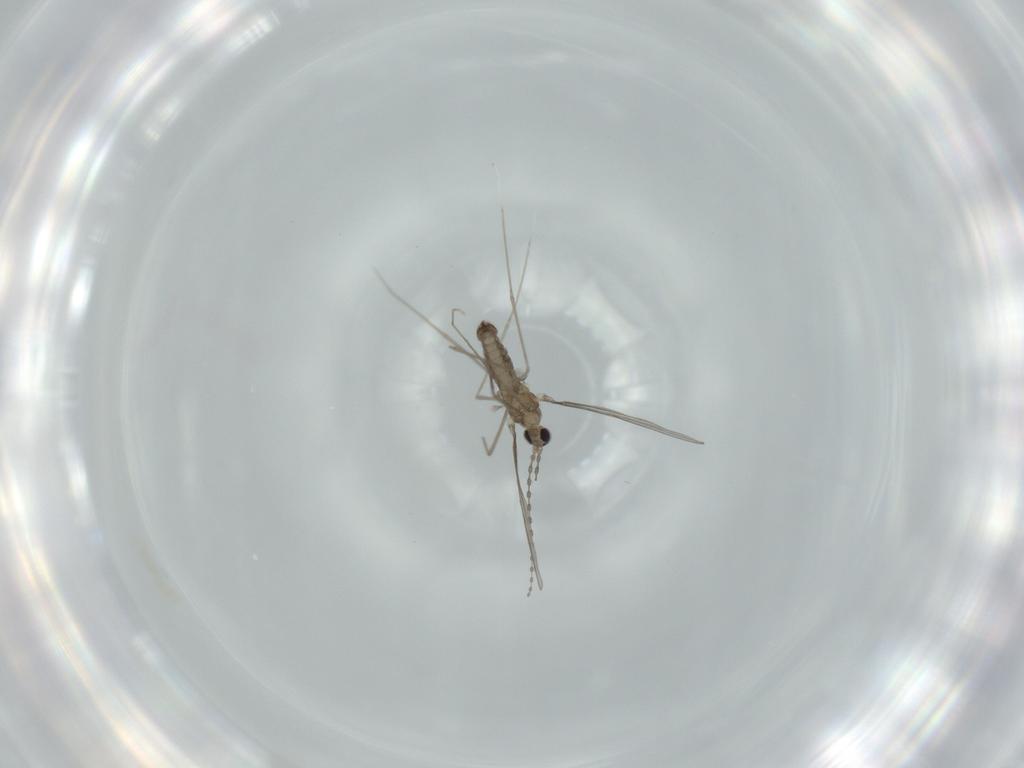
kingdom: Animalia
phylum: Arthropoda
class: Insecta
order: Diptera
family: Cecidomyiidae
